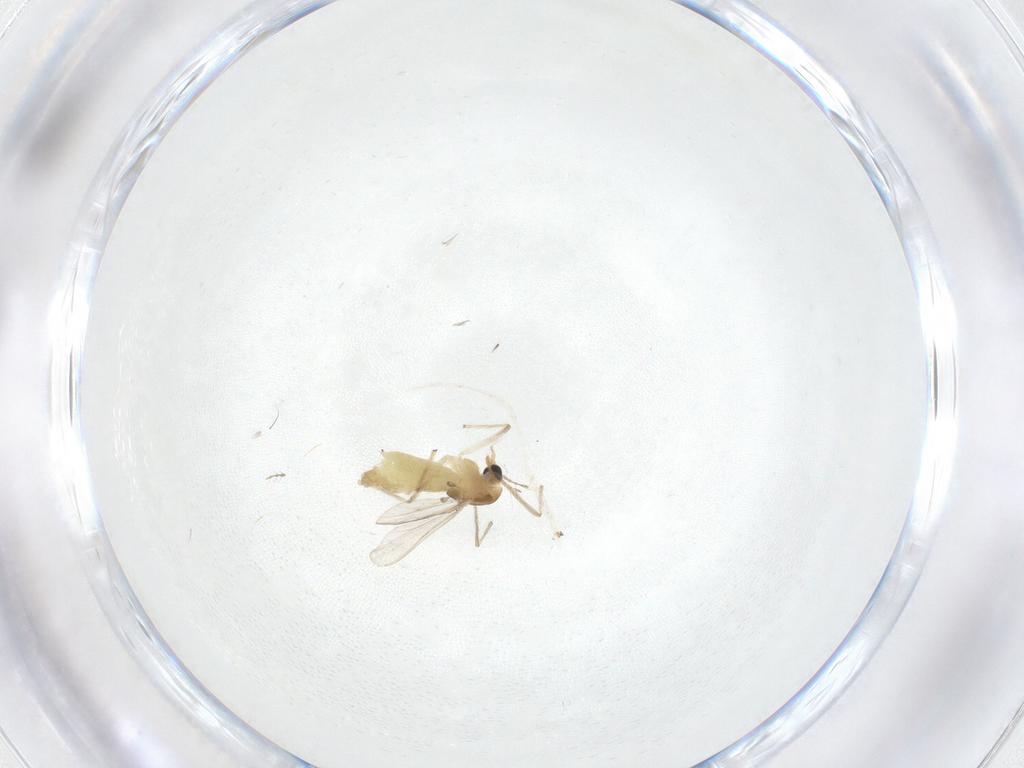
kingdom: Animalia
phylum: Arthropoda
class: Insecta
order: Diptera
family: Chironomidae
